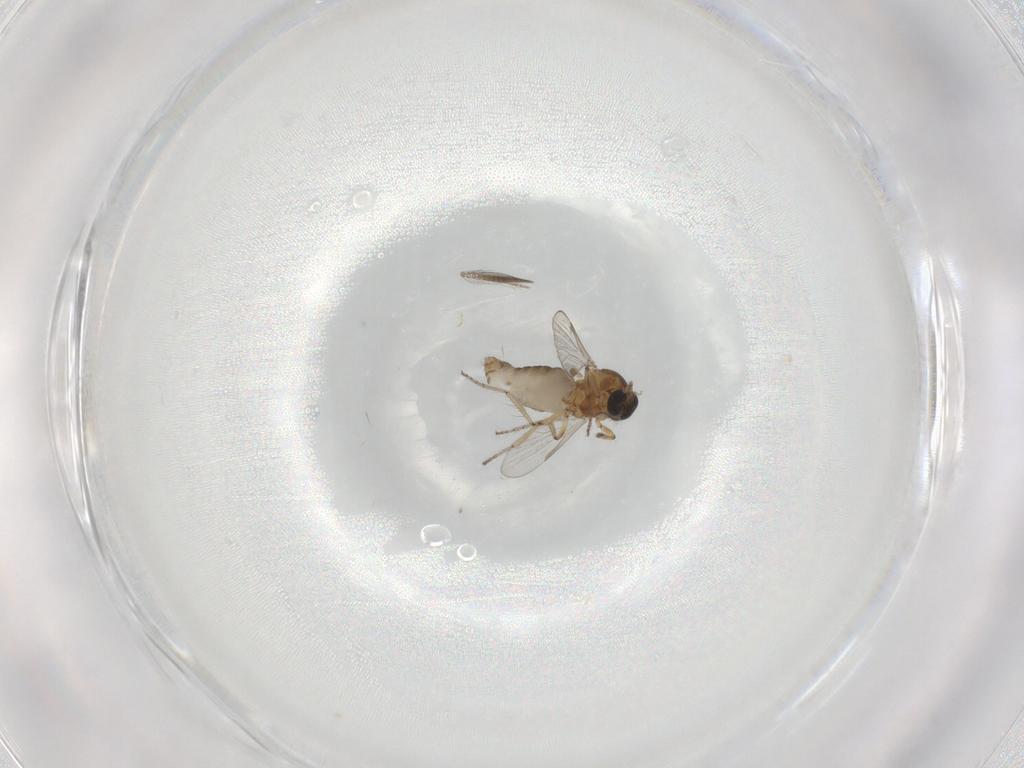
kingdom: Animalia
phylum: Arthropoda
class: Insecta
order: Diptera
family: Ceratopogonidae
